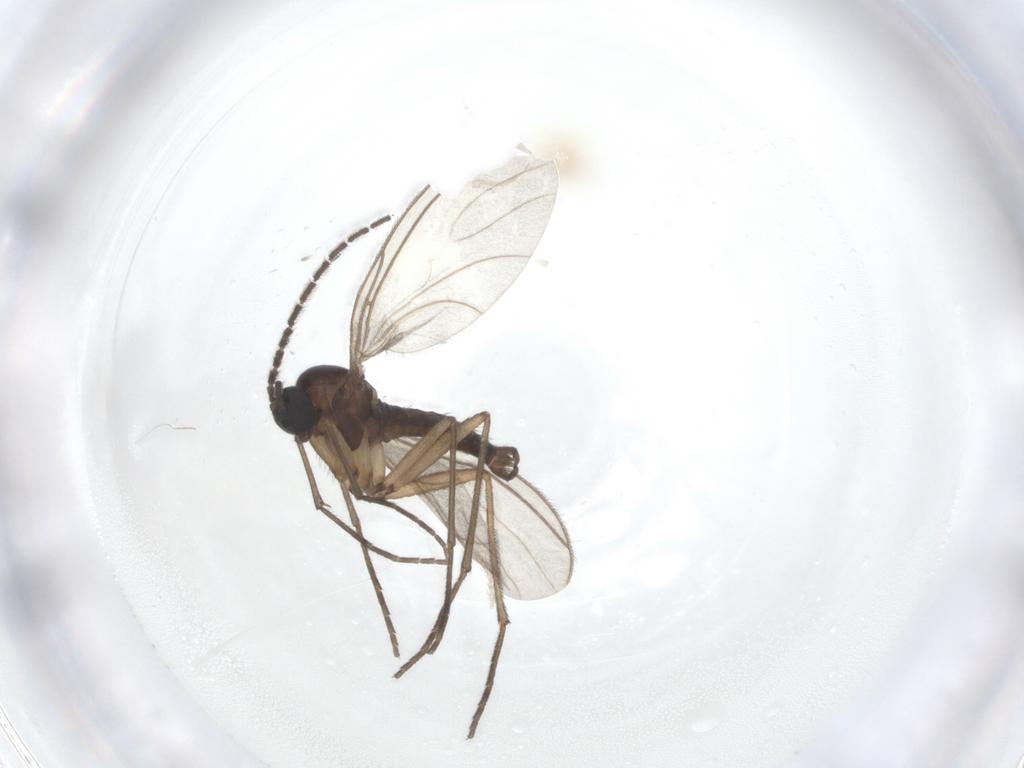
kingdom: Animalia
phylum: Arthropoda
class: Insecta
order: Diptera
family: Sciaridae
